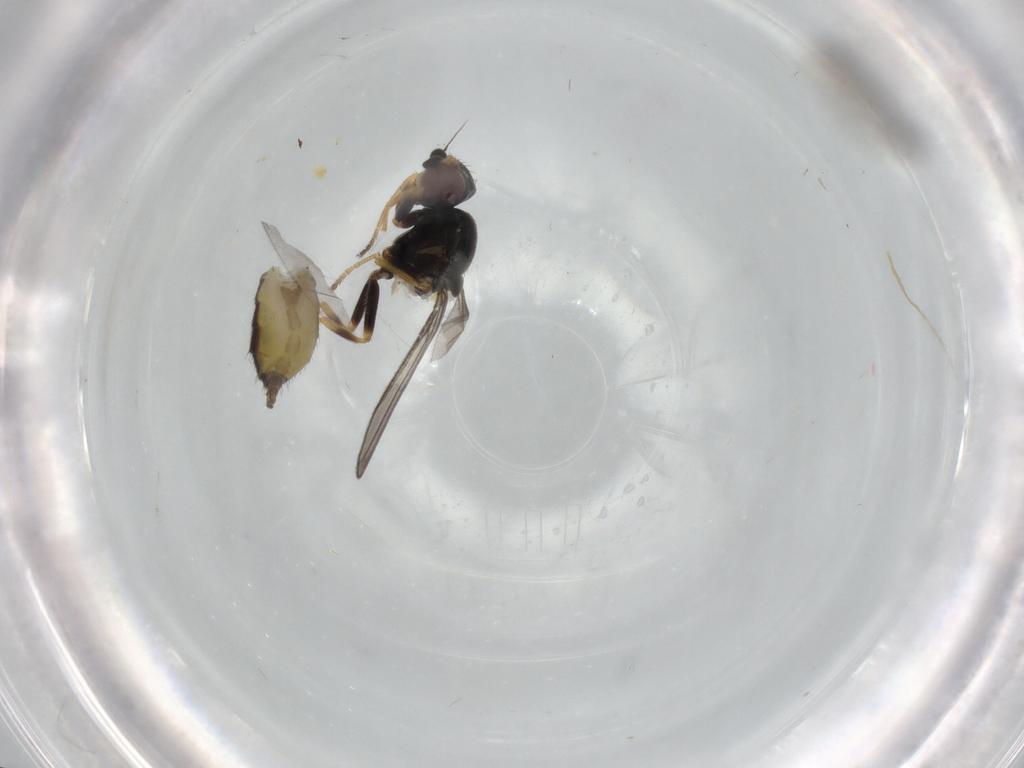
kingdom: Animalia
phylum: Arthropoda
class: Insecta
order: Diptera
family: Chloropidae
